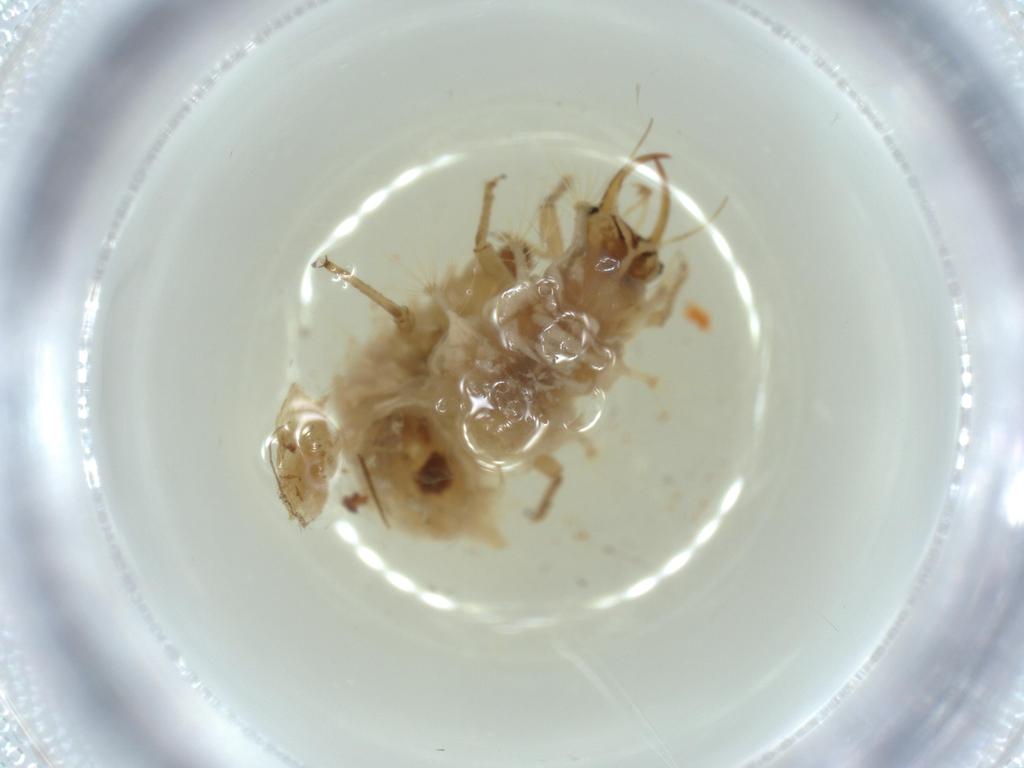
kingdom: Animalia
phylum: Arthropoda
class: Insecta
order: Neuroptera
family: Chrysopidae
